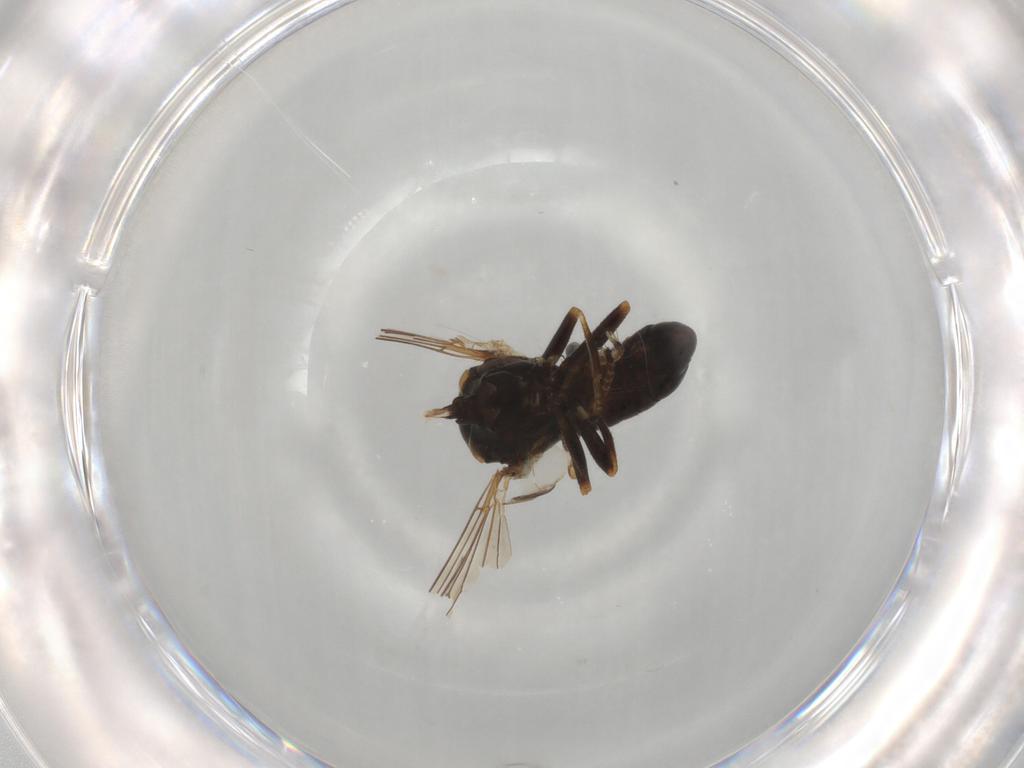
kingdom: Animalia
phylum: Arthropoda
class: Insecta
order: Diptera
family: Pipunculidae
